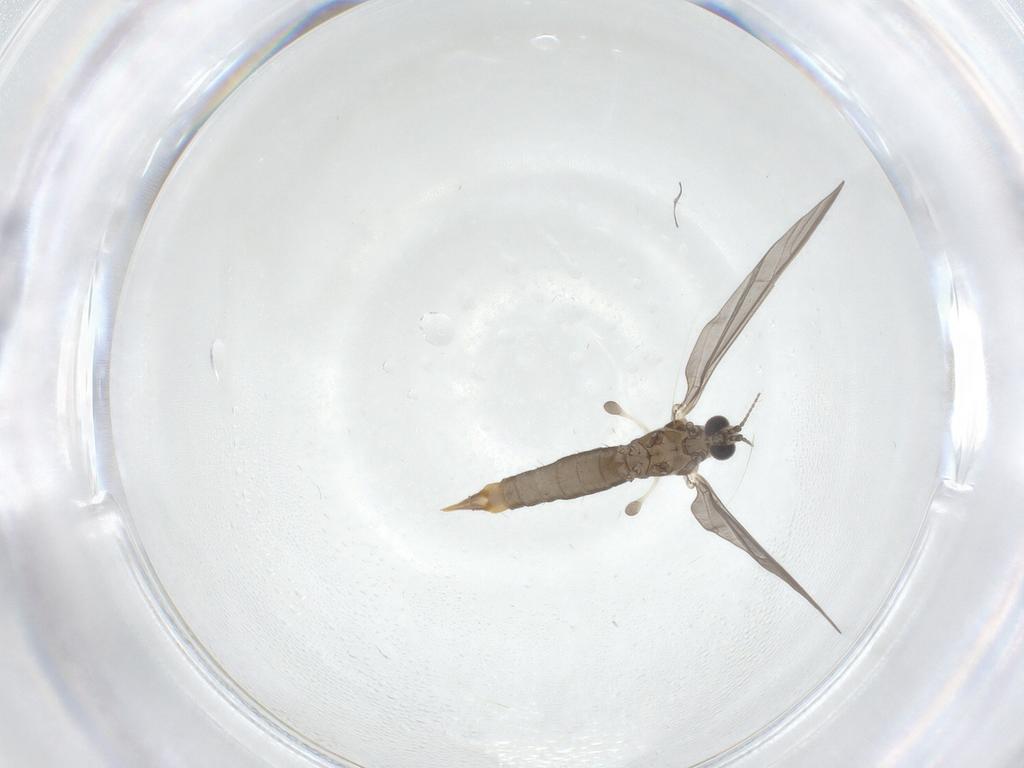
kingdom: Animalia
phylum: Arthropoda
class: Insecta
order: Diptera
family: Limoniidae
